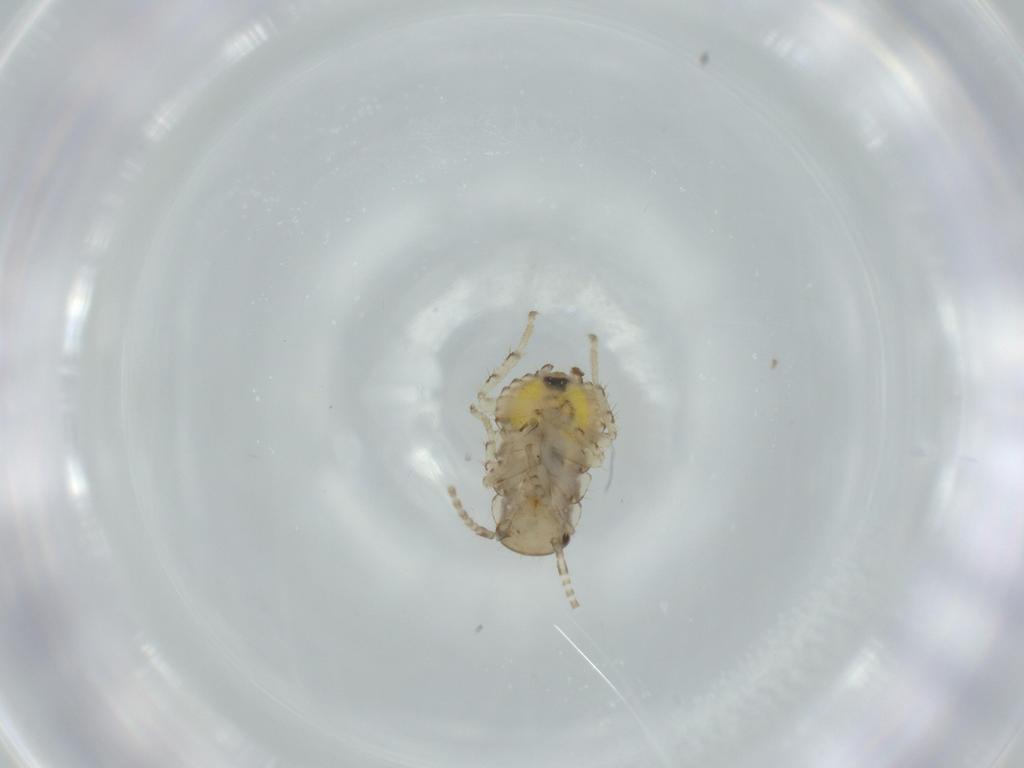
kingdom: Animalia
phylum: Arthropoda
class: Insecta
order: Blattodea
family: Ectobiidae
